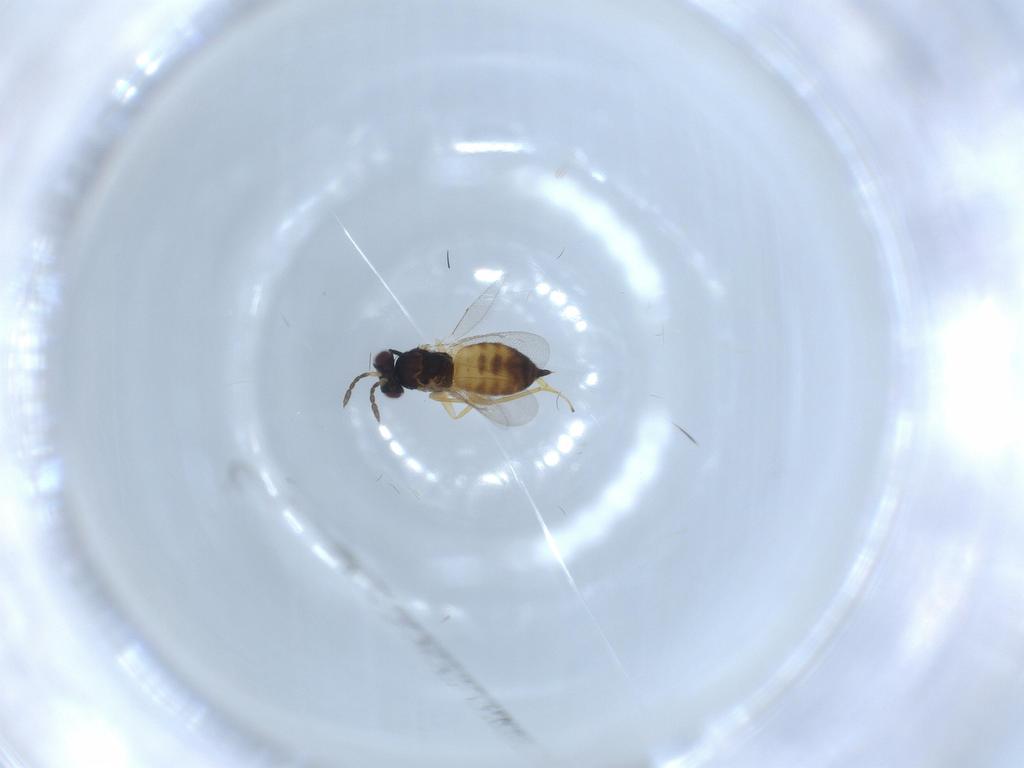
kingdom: Animalia
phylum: Arthropoda
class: Insecta
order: Hymenoptera
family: Eulophidae
